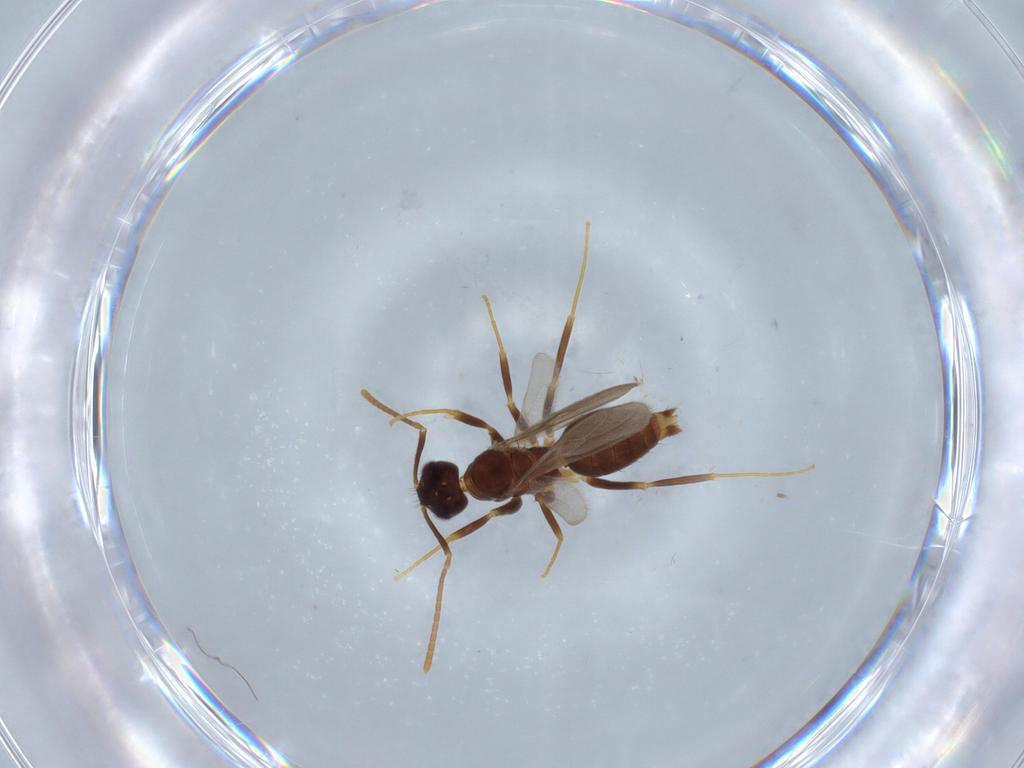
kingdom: Animalia
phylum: Arthropoda
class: Insecta
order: Hymenoptera
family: Formicidae
